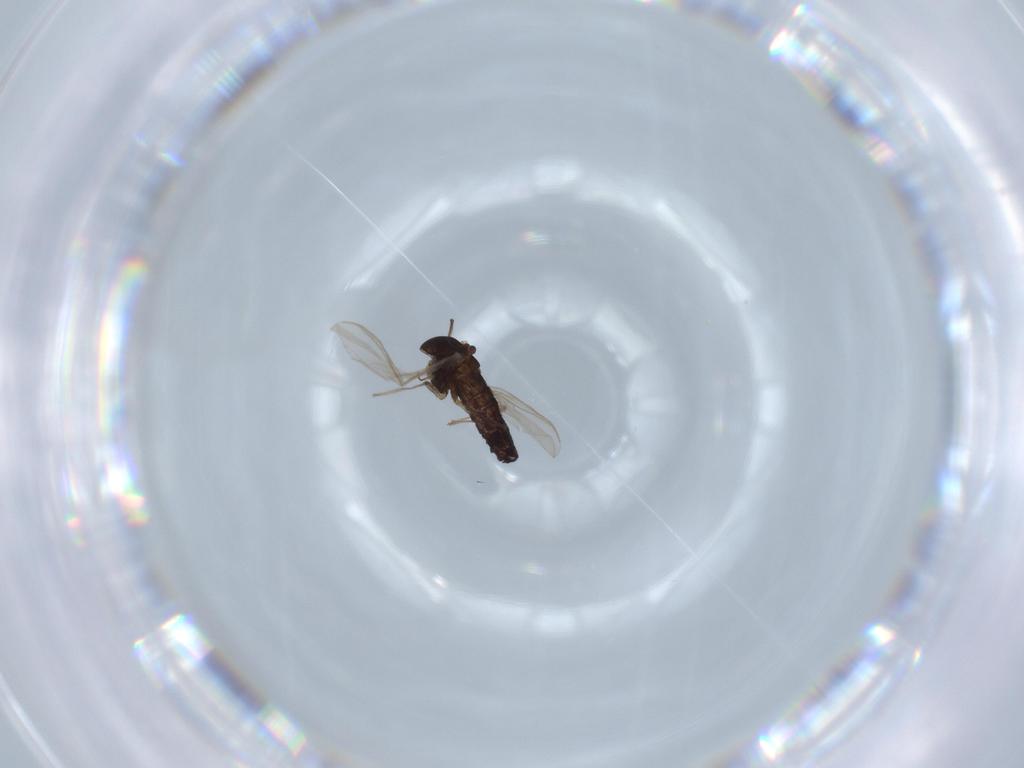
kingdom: Animalia
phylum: Arthropoda
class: Insecta
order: Diptera
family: Chironomidae
